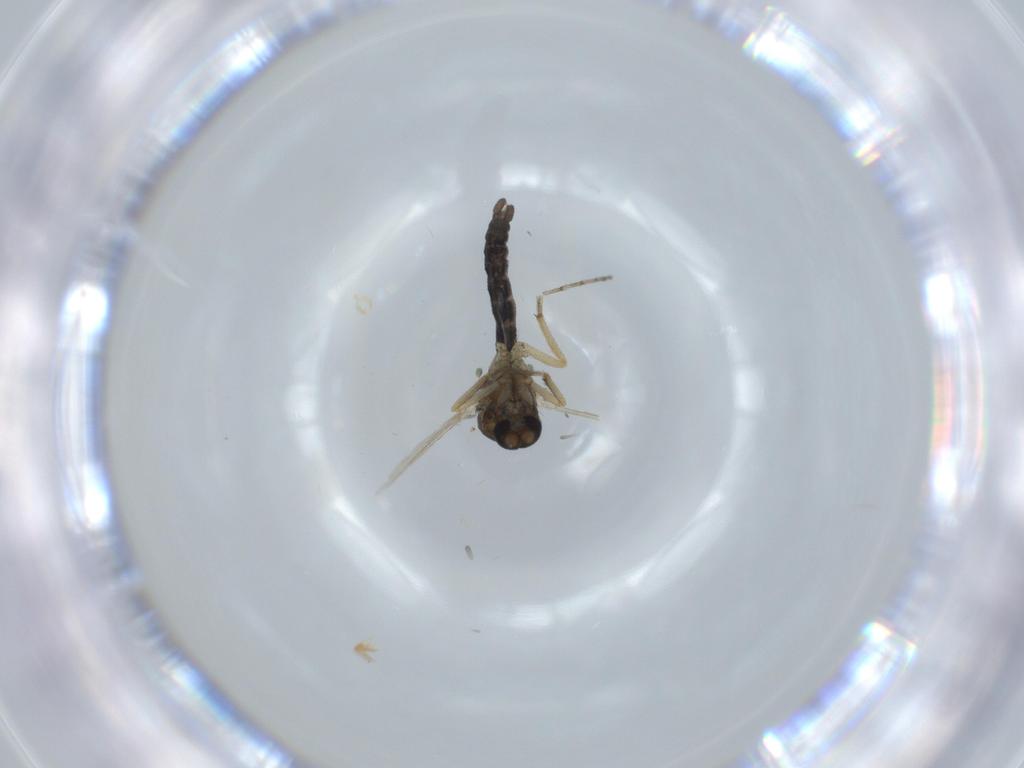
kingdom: Animalia
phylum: Arthropoda
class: Insecta
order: Diptera
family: Ceratopogonidae
